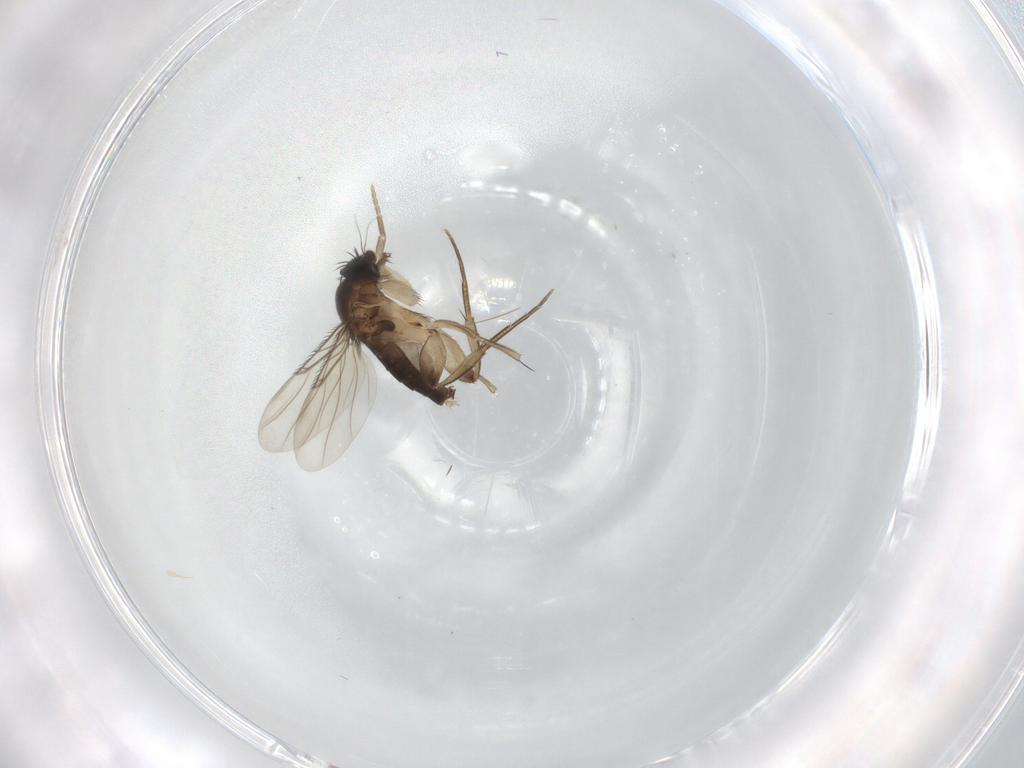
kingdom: Animalia
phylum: Arthropoda
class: Insecta
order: Diptera
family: Phoridae
